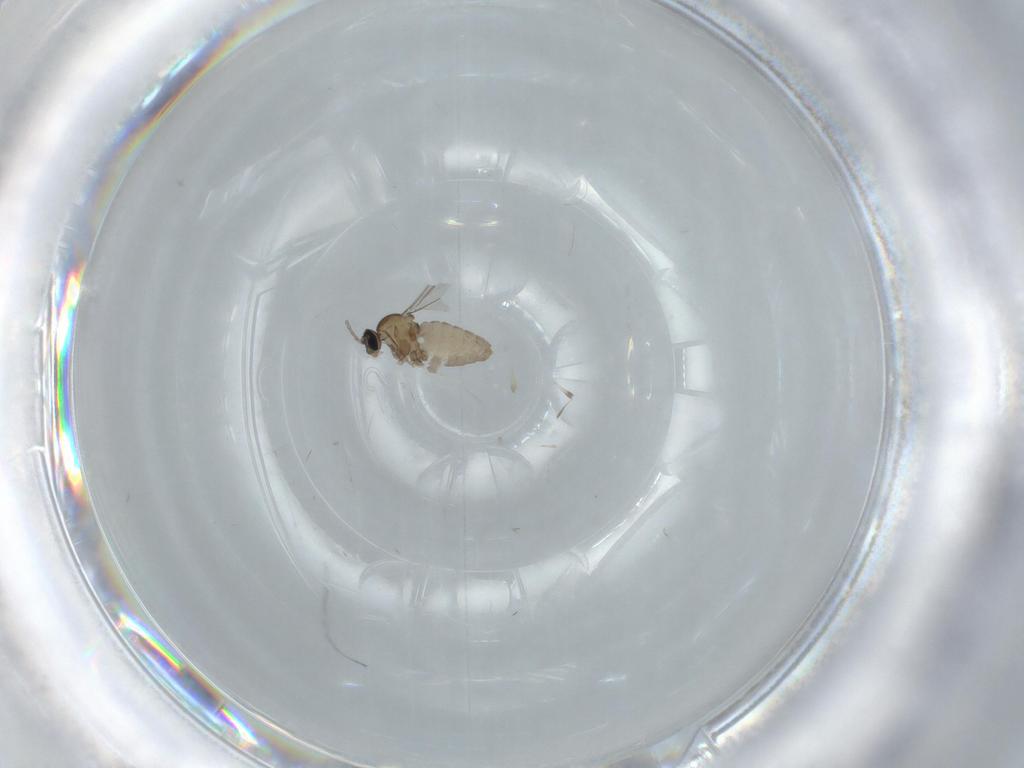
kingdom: Animalia
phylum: Arthropoda
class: Insecta
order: Diptera
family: Cecidomyiidae
